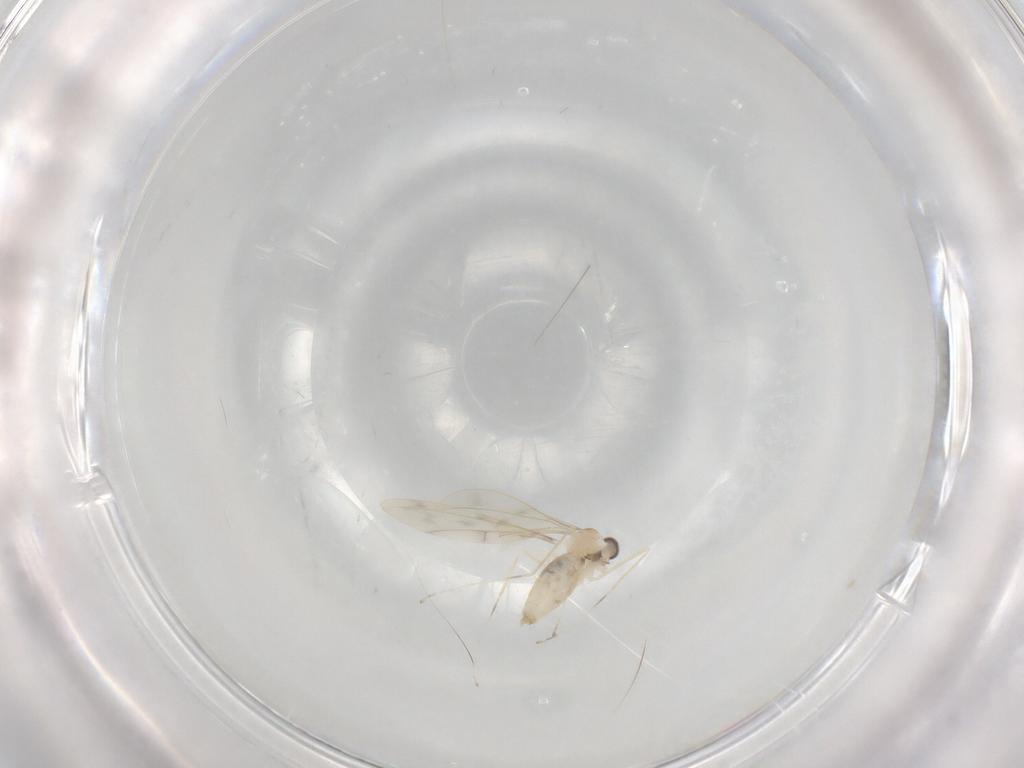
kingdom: Animalia
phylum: Arthropoda
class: Insecta
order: Diptera
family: Cecidomyiidae
